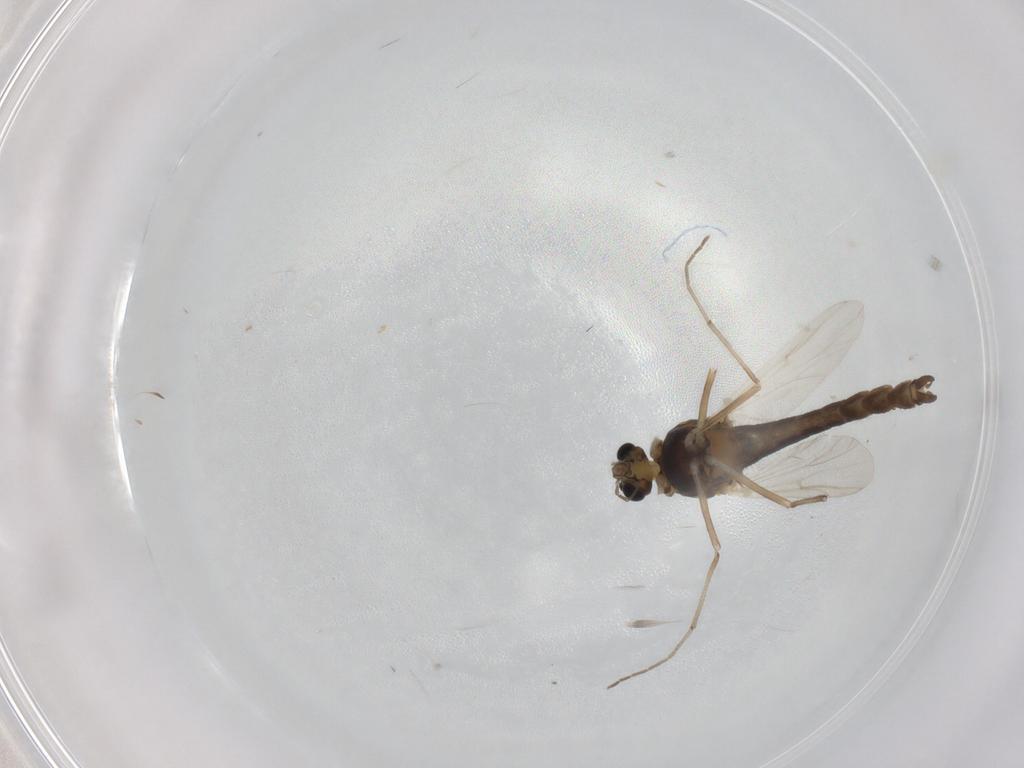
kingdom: Animalia
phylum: Arthropoda
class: Insecta
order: Diptera
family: Chironomidae
